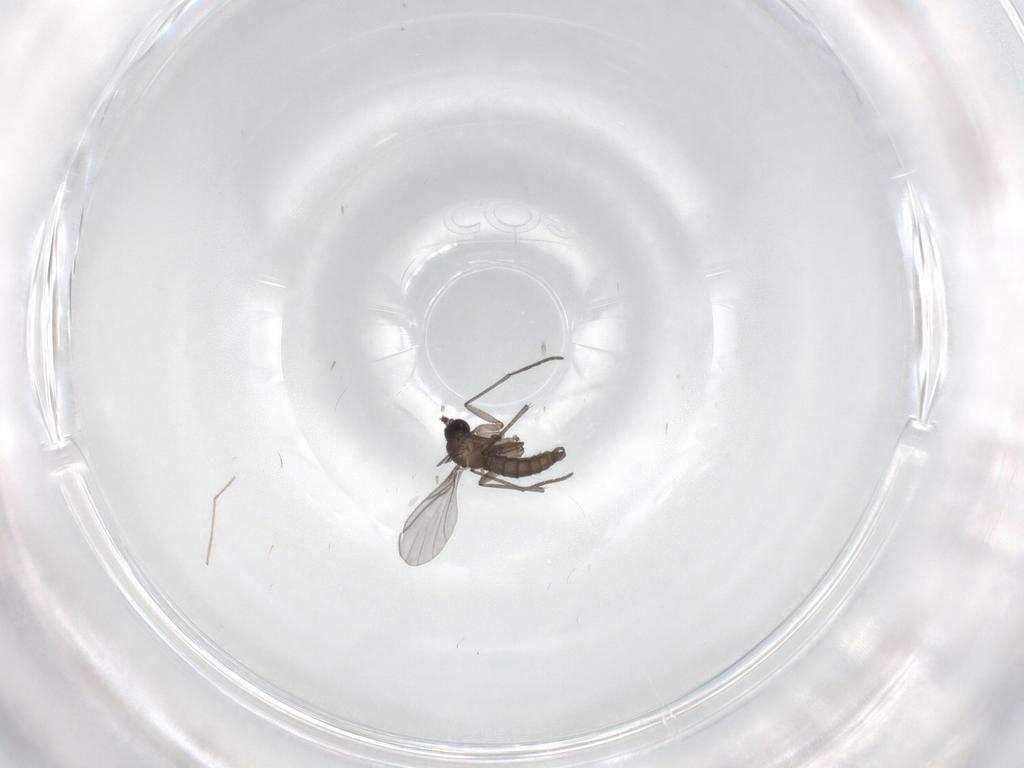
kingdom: Animalia
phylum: Arthropoda
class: Insecta
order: Diptera
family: Chironomidae
